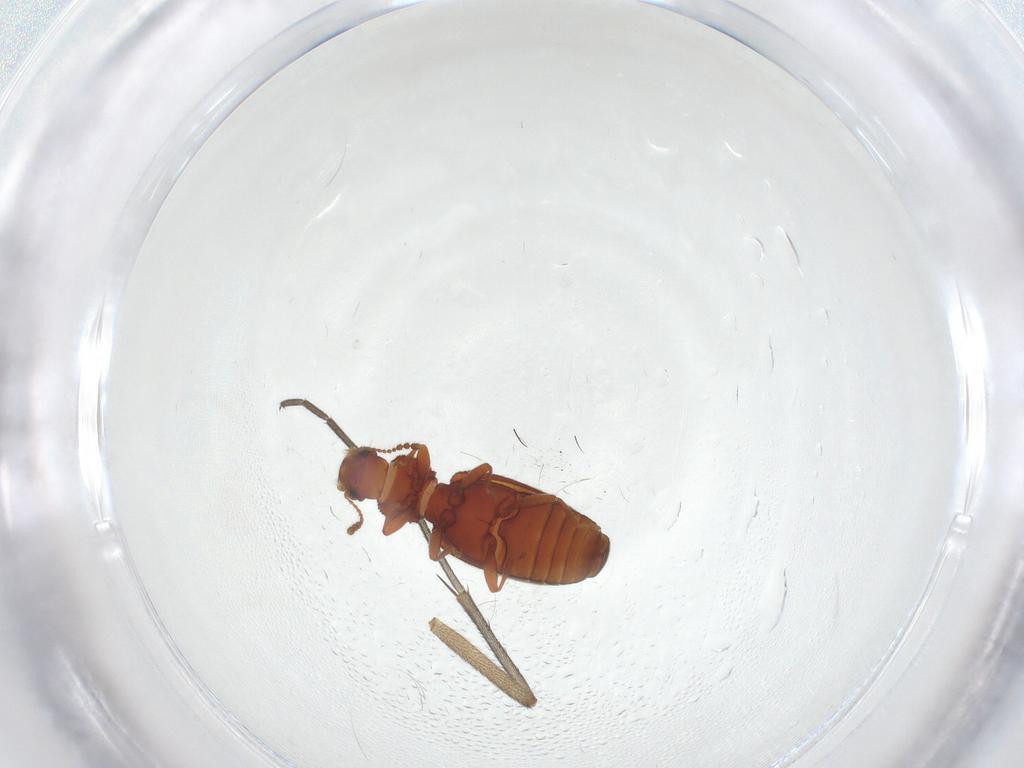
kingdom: Animalia
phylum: Arthropoda
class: Insecta
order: Coleoptera
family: Latridiidae
